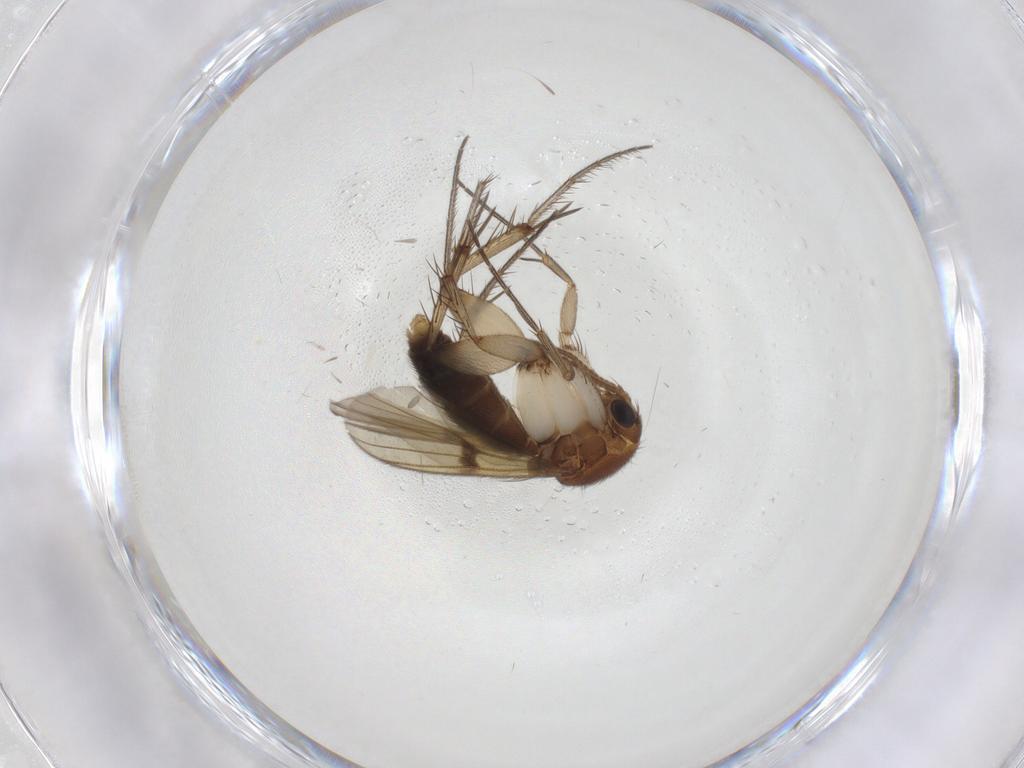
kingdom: Animalia
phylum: Arthropoda
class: Insecta
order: Diptera
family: Mycetophilidae
